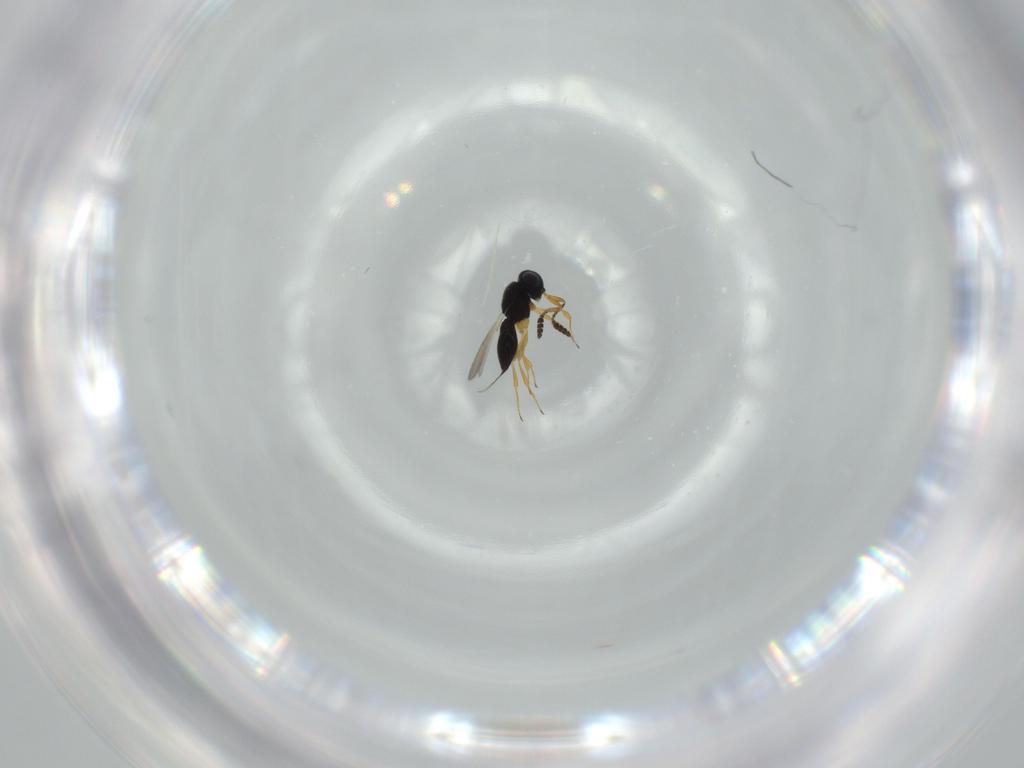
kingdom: Animalia
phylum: Arthropoda
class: Insecta
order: Hymenoptera
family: Scelionidae
